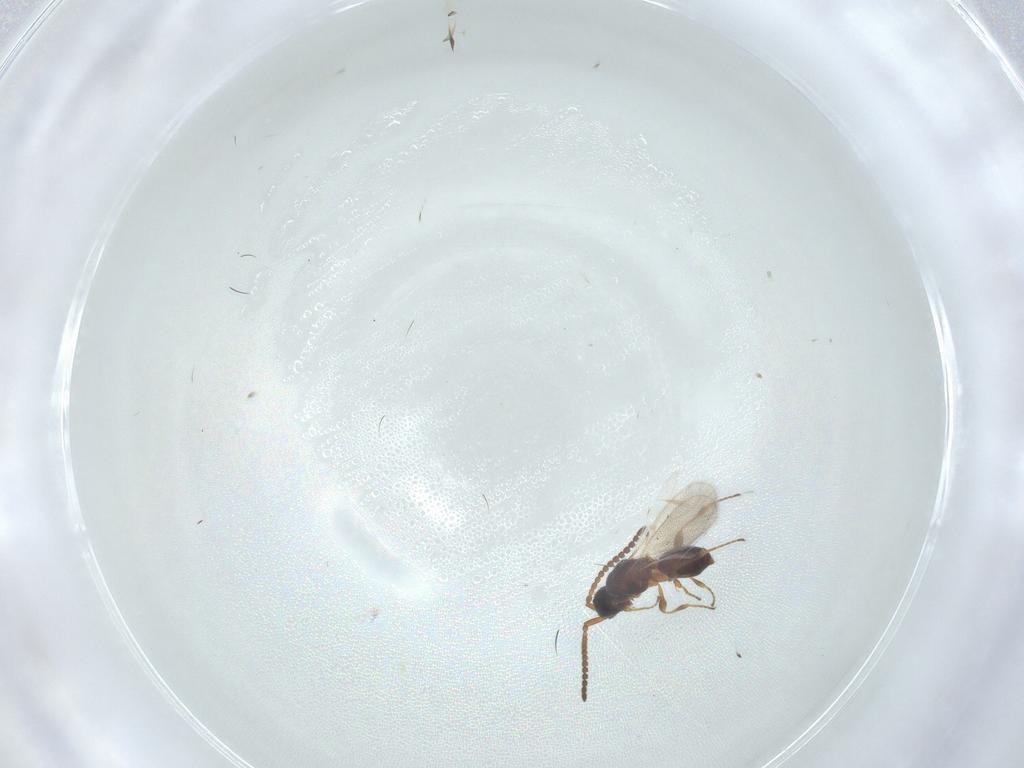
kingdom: Animalia
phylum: Arthropoda
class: Insecta
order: Hymenoptera
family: Diapriidae
